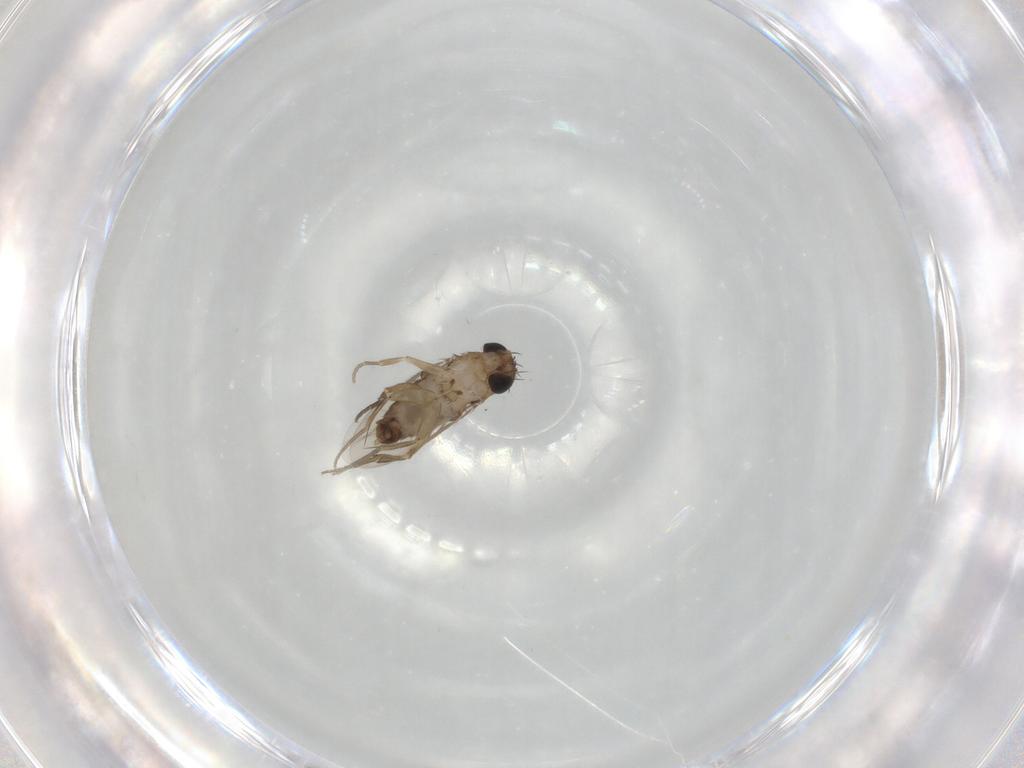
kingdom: Animalia
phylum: Arthropoda
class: Insecta
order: Diptera
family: Ceratopogonidae
